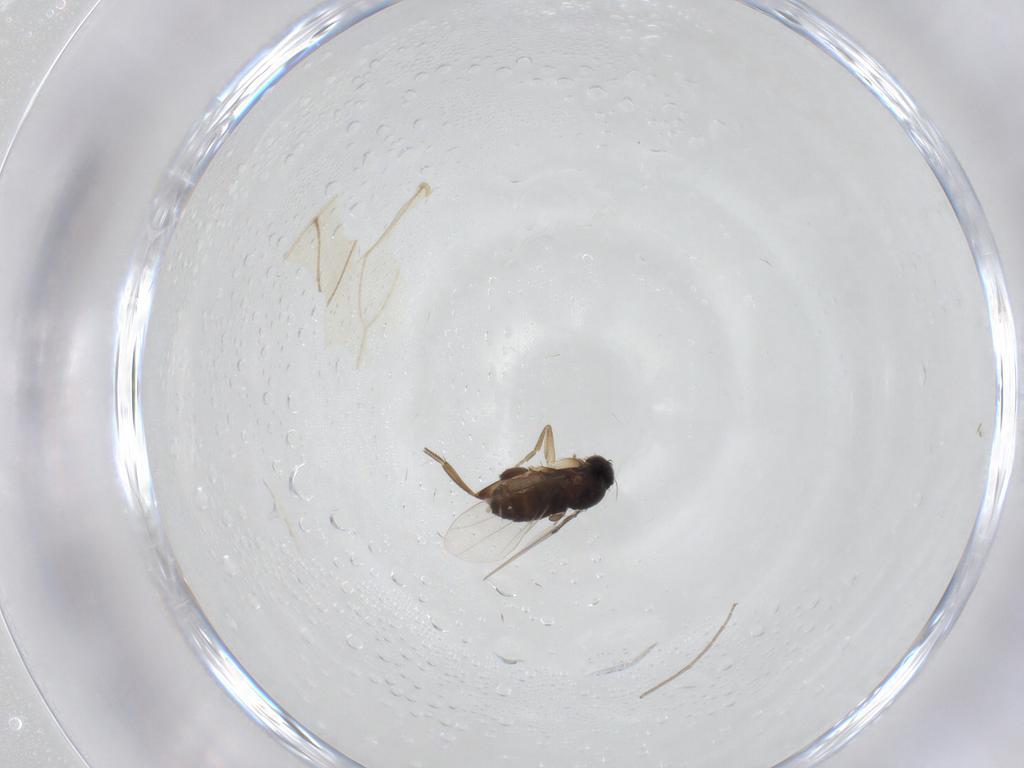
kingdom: Animalia
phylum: Arthropoda
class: Insecta
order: Diptera
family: Phoridae
